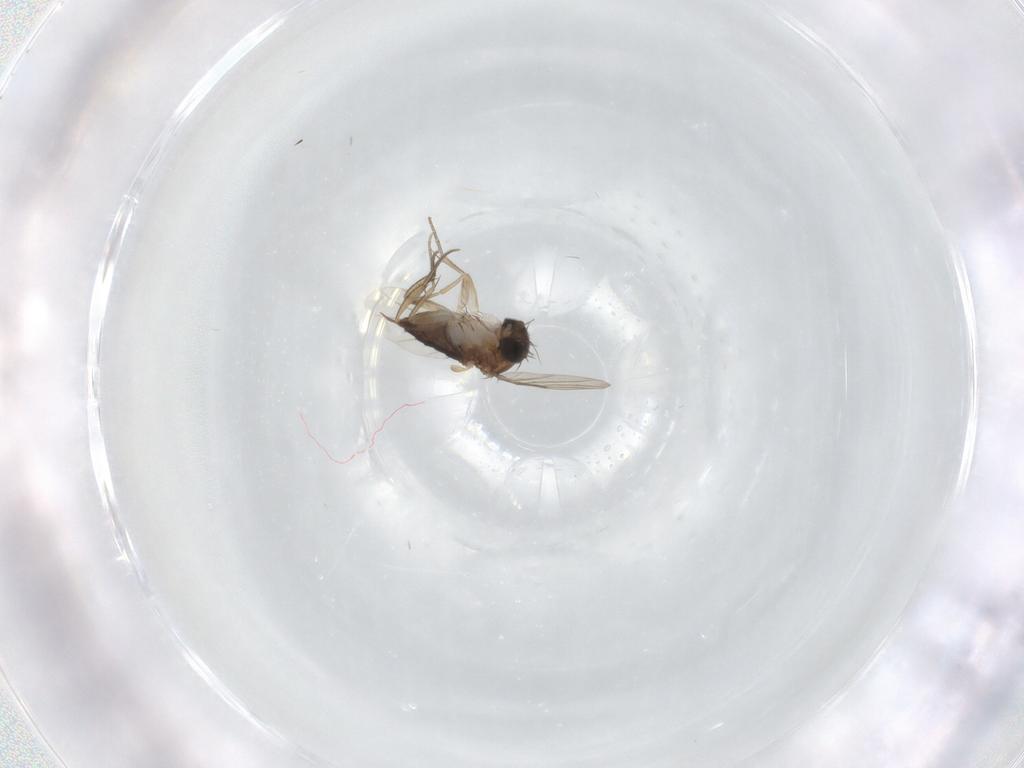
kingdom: Animalia
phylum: Arthropoda
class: Insecta
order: Diptera
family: Phoridae
